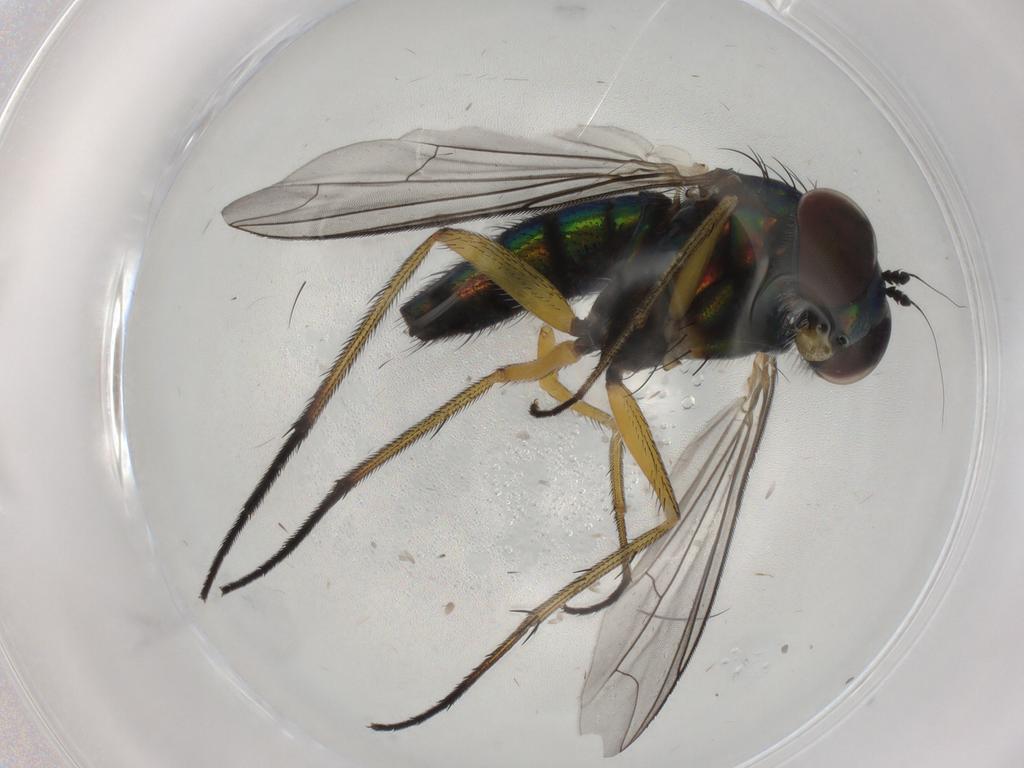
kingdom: Animalia
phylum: Arthropoda
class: Insecta
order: Diptera
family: Dolichopodidae
